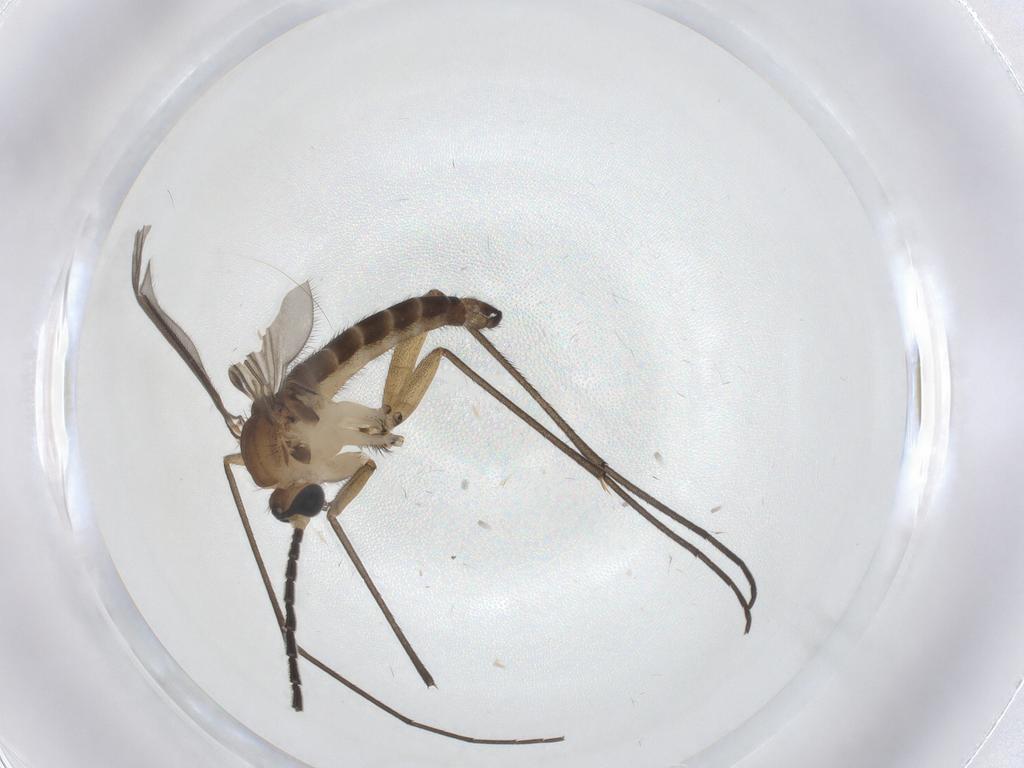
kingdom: Animalia
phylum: Arthropoda
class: Insecta
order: Diptera
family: Sciaridae
